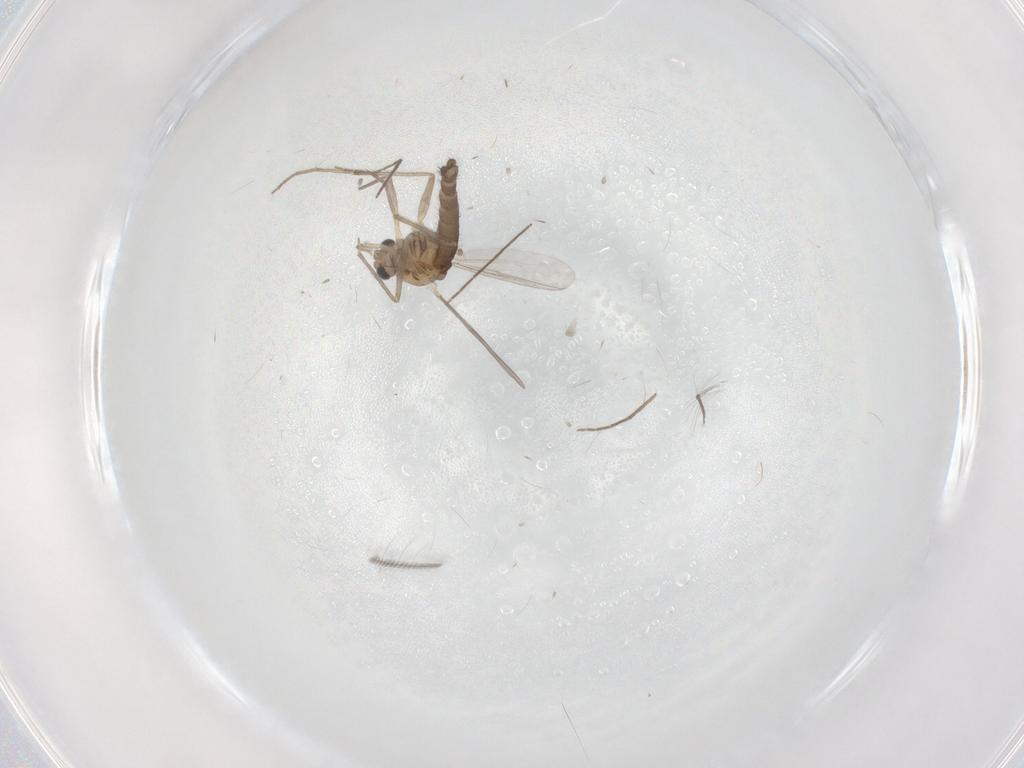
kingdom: Animalia
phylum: Arthropoda
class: Insecta
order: Diptera
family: Chironomidae
